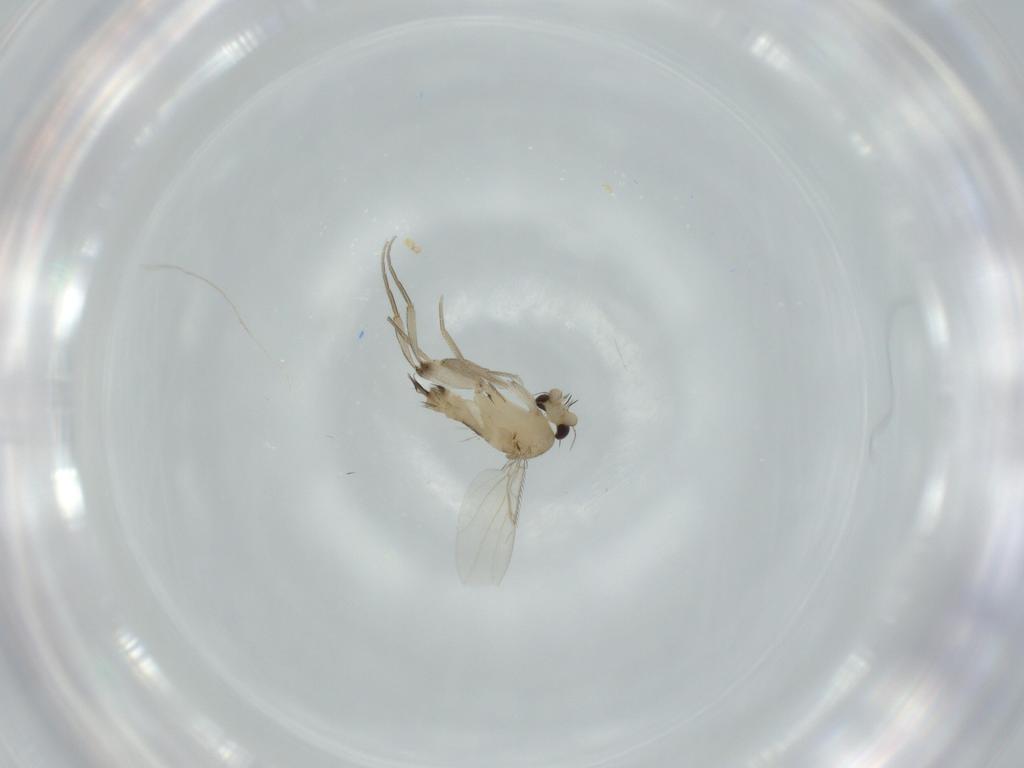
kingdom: Animalia
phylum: Arthropoda
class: Insecta
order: Diptera
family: Phoridae
